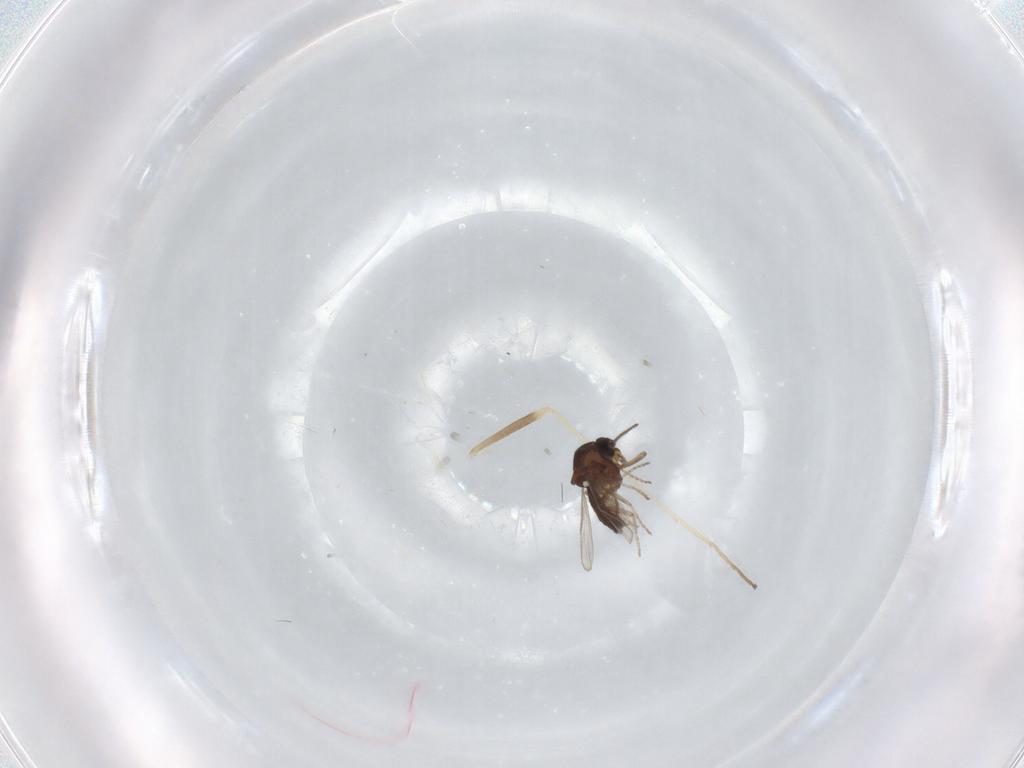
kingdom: Animalia
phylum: Arthropoda
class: Insecta
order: Diptera
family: Ceratopogonidae
